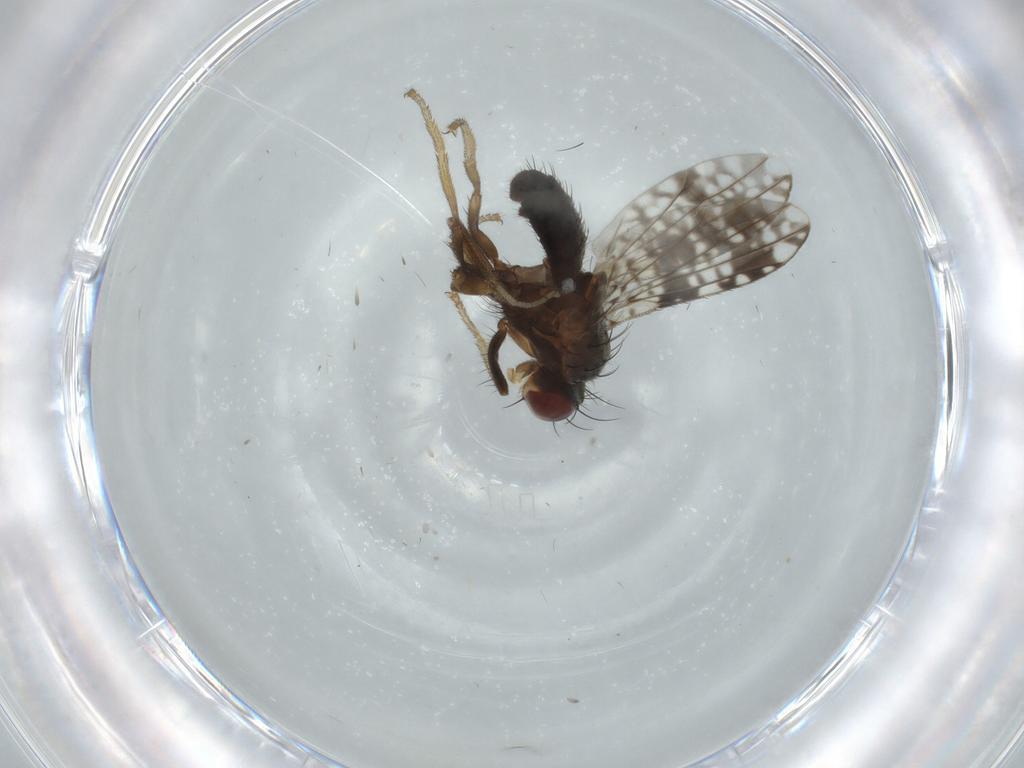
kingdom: Animalia
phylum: Arthropoda
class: Insecta
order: Diptera
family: Tephritidae
